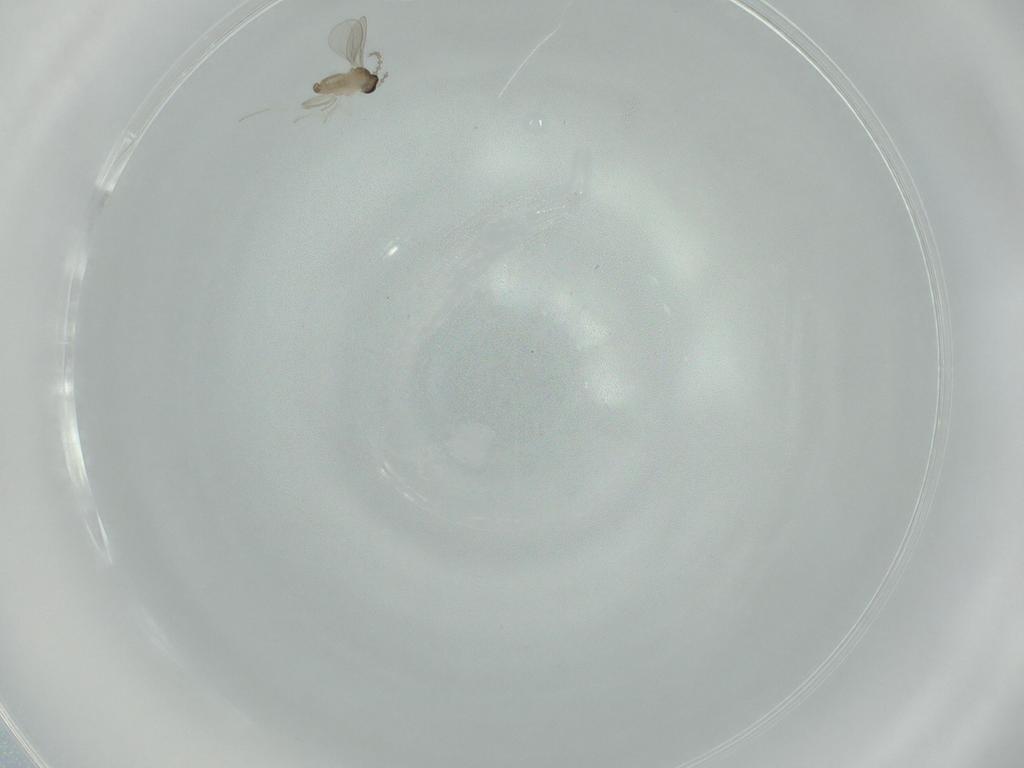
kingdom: Animalia
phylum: Arthropoda
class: Insecta
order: Diptera
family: Cecidomyiidae
